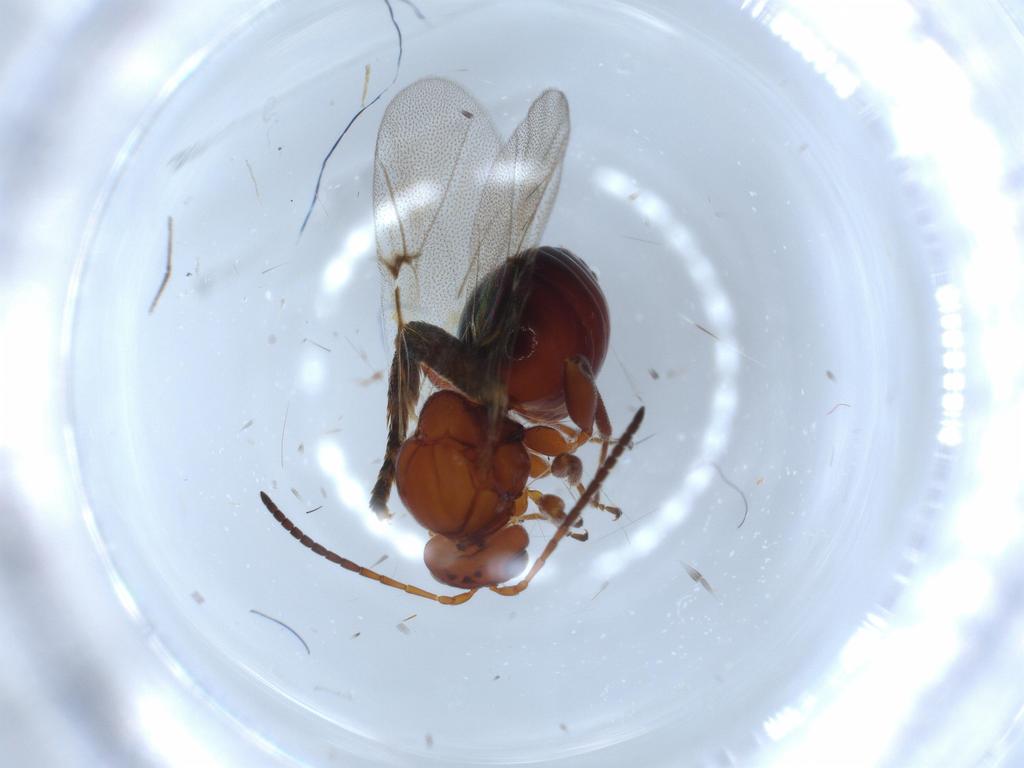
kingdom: Animalia
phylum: Arthropoda
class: Insecta
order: Hymenoptera
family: Cynipidae
